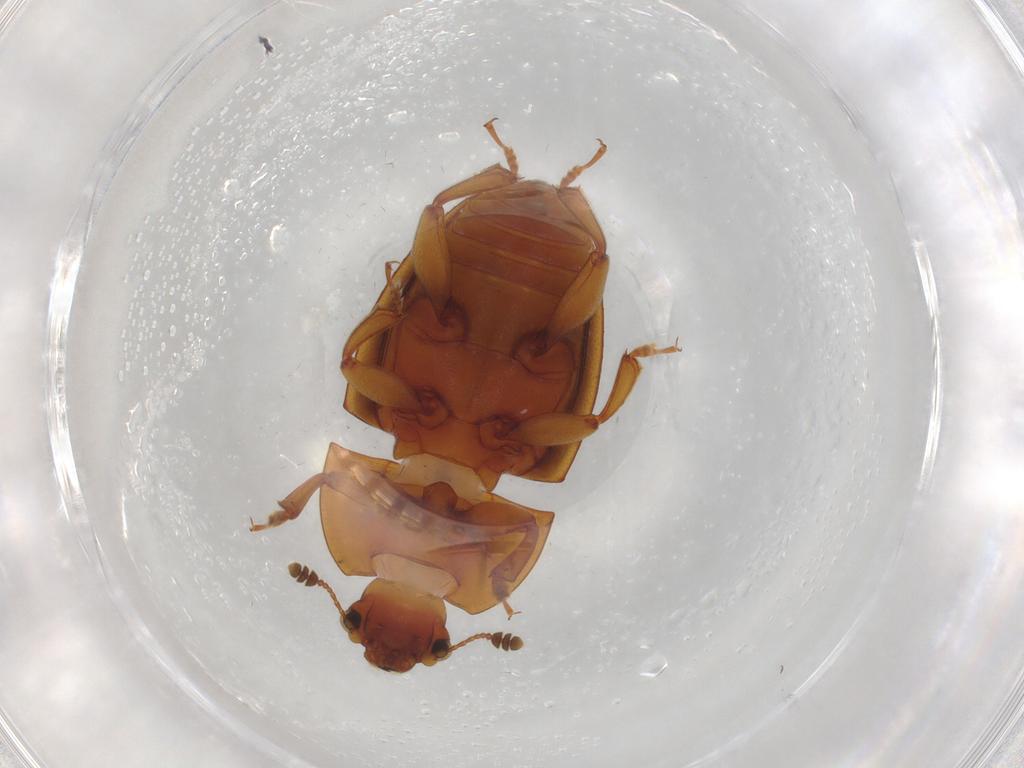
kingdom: Animalia
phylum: Arthropoda
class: Insecta
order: Coleoptera
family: Nitidulidae
